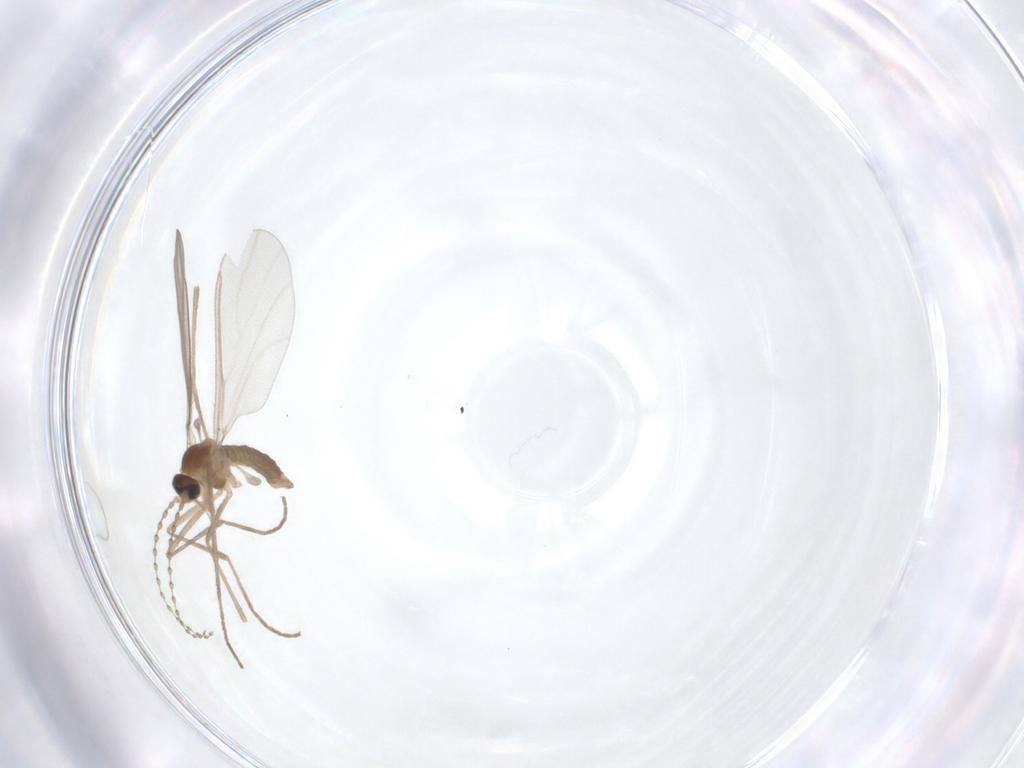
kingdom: Animalia
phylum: Arthropoda
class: Insecta
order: Diptera
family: Cecidomyiidae
